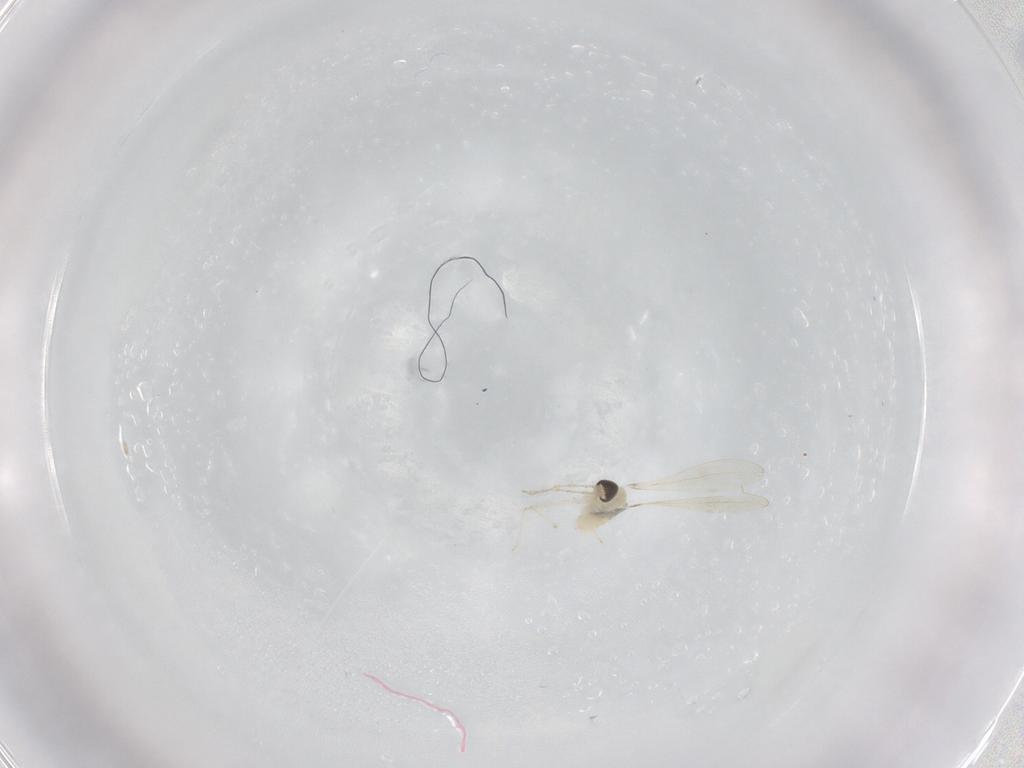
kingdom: Animalia
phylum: Arthropoda
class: Insecta
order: Diptera
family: Cecidomyiidae
